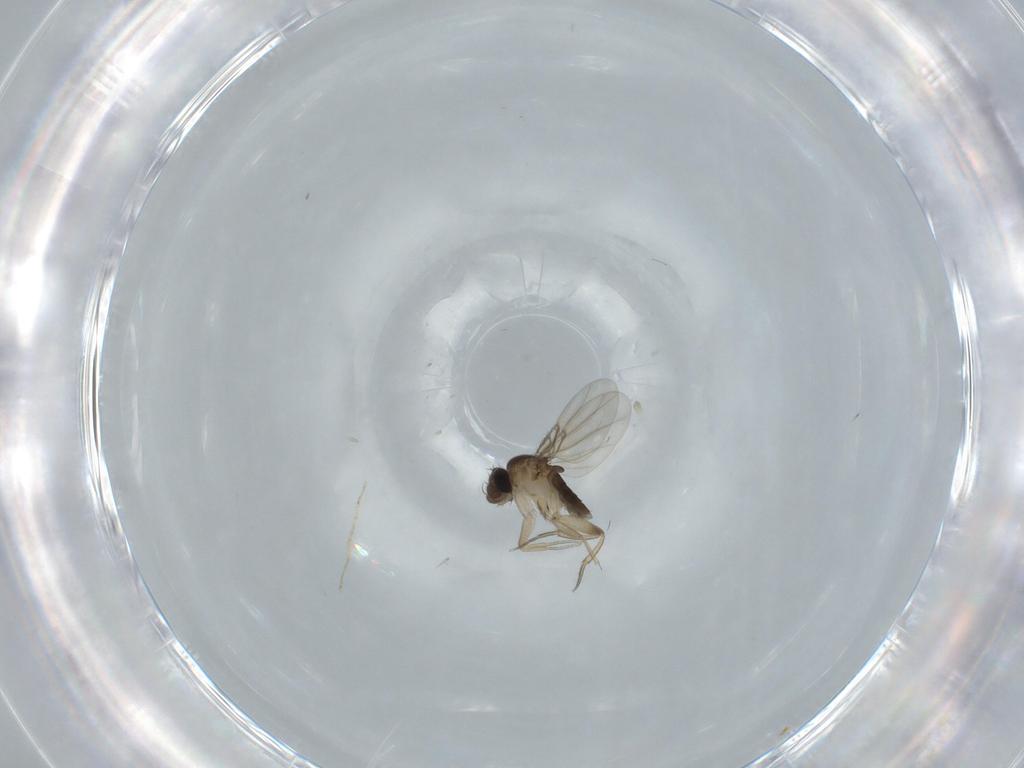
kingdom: Animalia
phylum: Arthropoda
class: Insecta
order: Diptera
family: Phoridae
